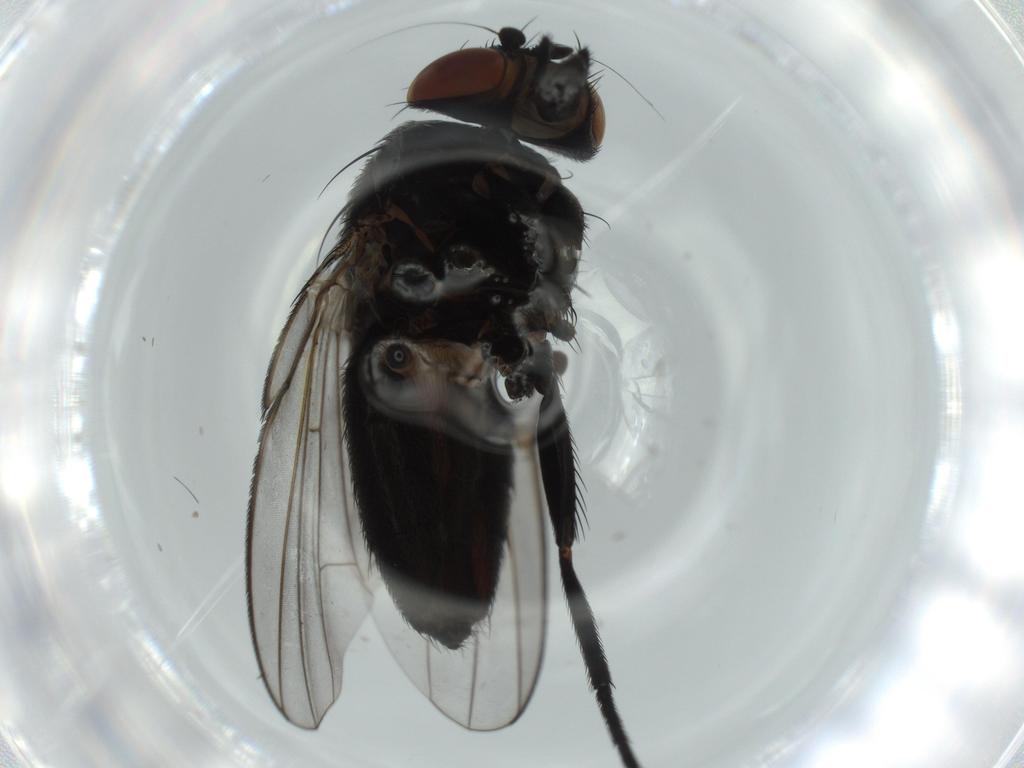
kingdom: Animalia
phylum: Arthropoda
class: Insecta
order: Diptera
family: Milichiidae
